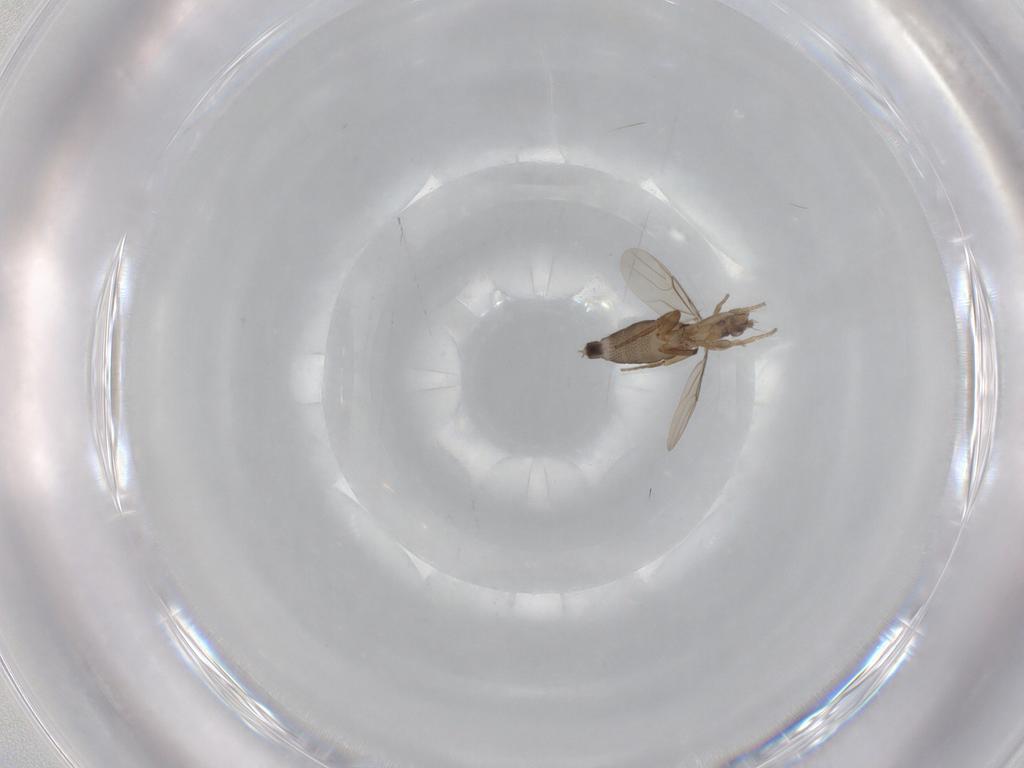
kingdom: Animalia
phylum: Arthropoda
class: Insecta
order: Diptera
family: Phoridae
